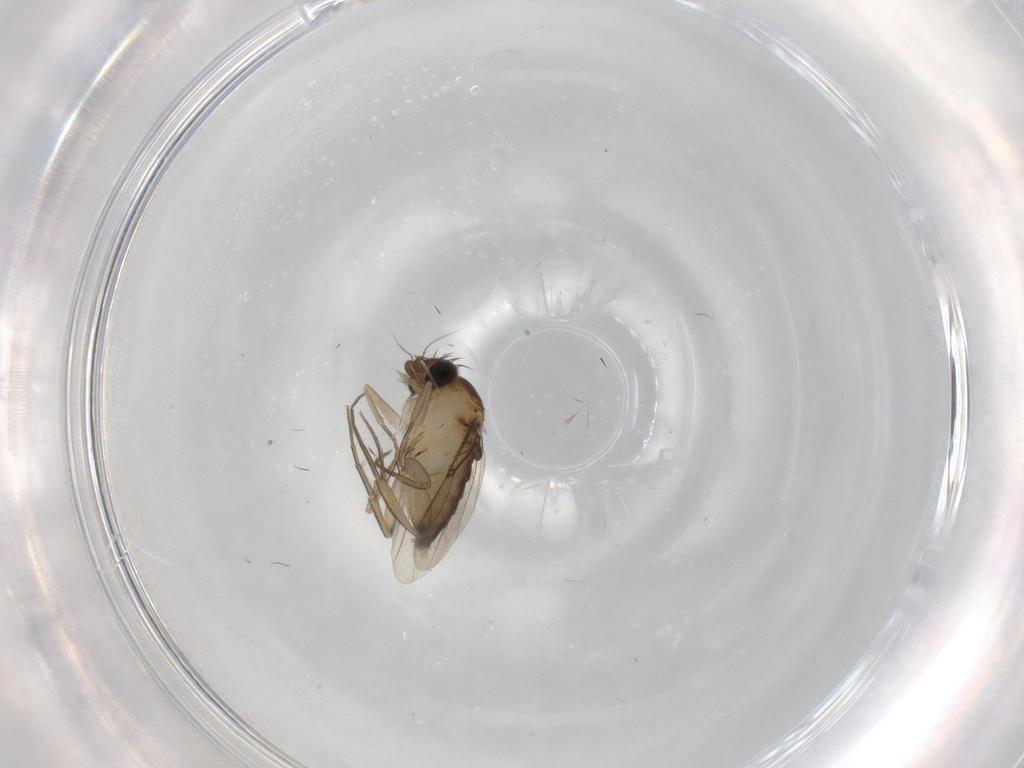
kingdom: Animalia
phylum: Arthropoda
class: Insecta
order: Diptera
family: Phoridae
